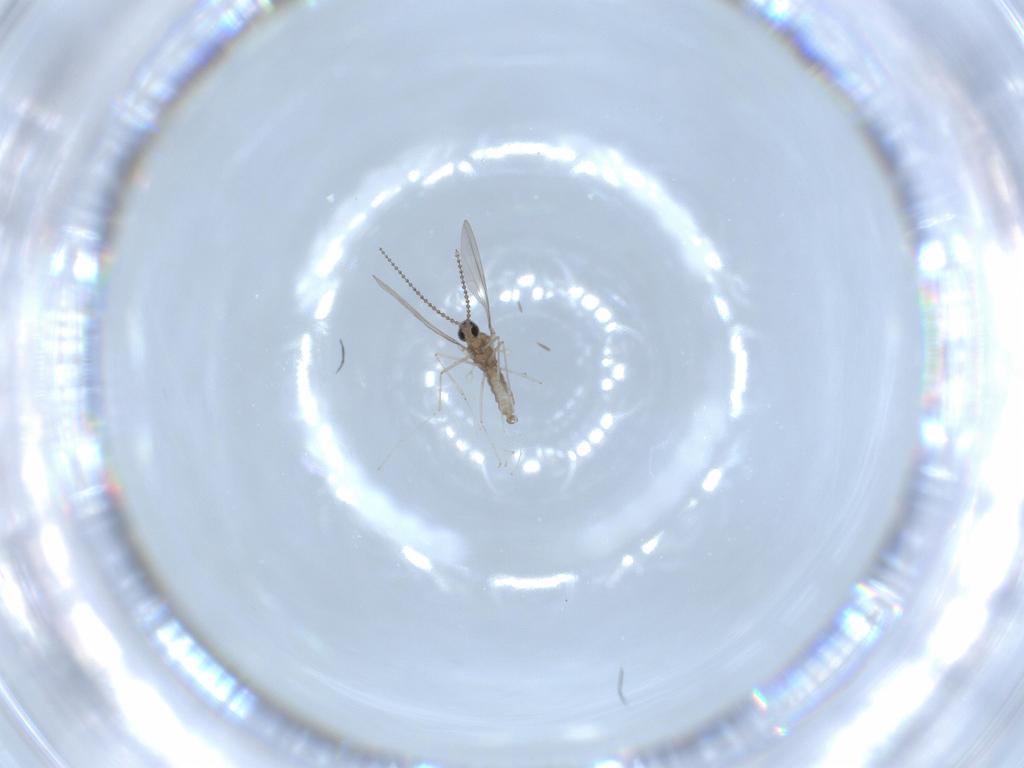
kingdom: Animalia
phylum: Arthropoda
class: Insecta
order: Diptera
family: Cecidomyiidae
